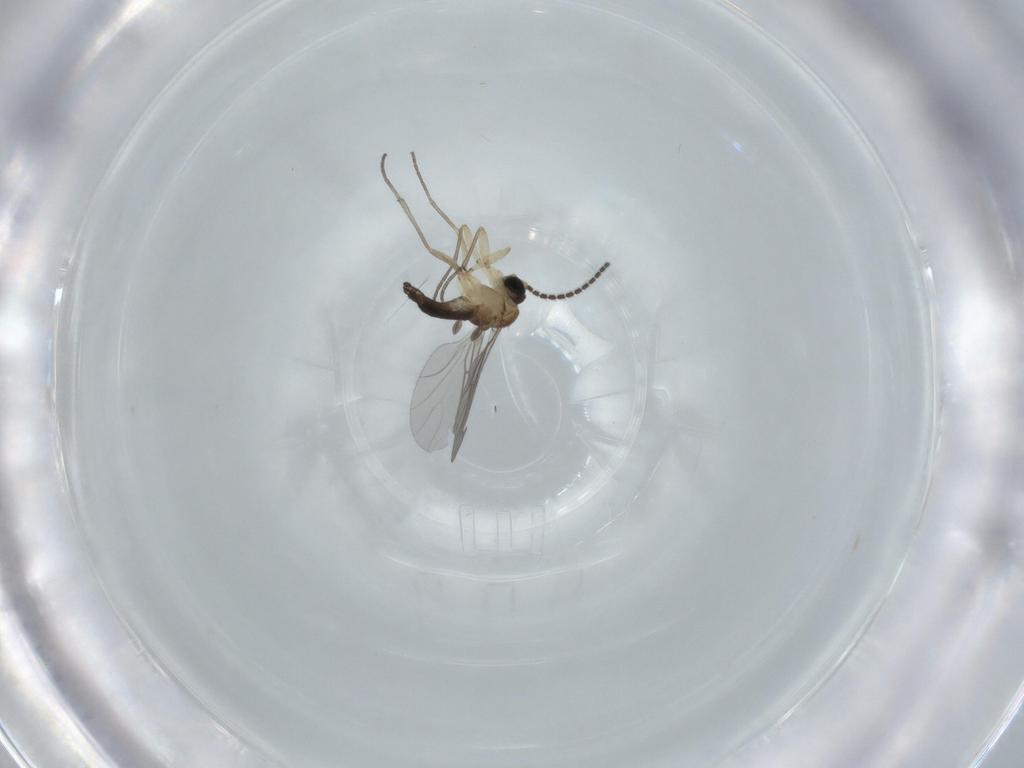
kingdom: Animalia
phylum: Arthropoda
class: Insecta
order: Diptera
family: Sciaridae
